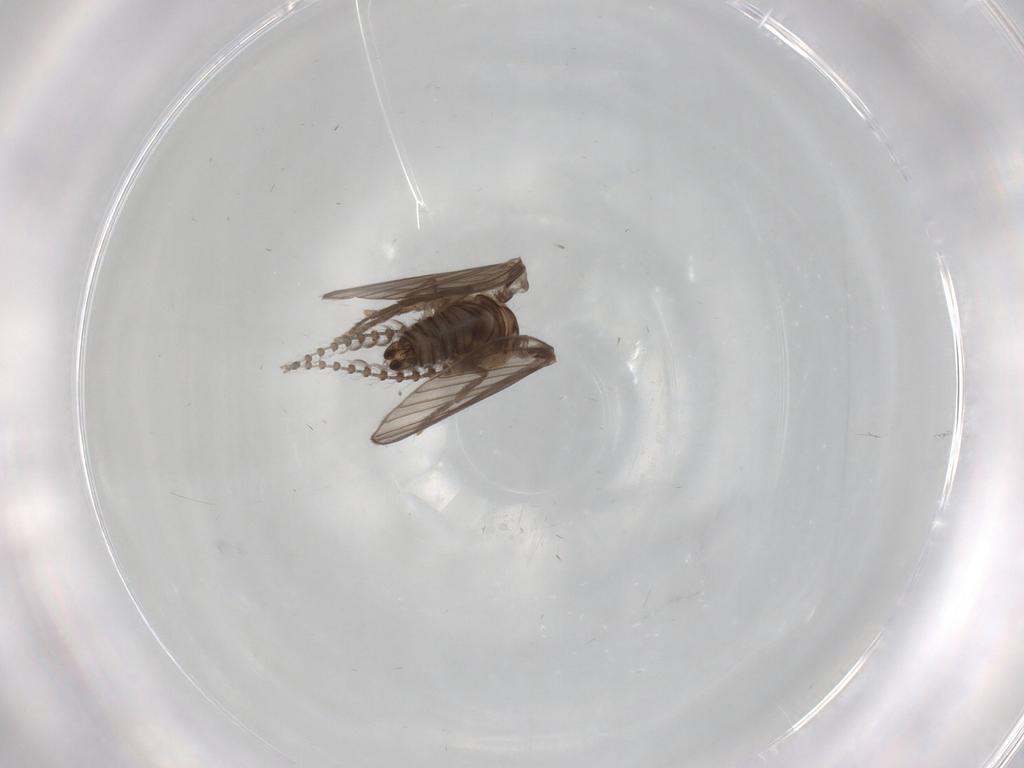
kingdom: Animalia
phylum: Arthropoda
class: Insecta
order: Diptera
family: Psychodidae
